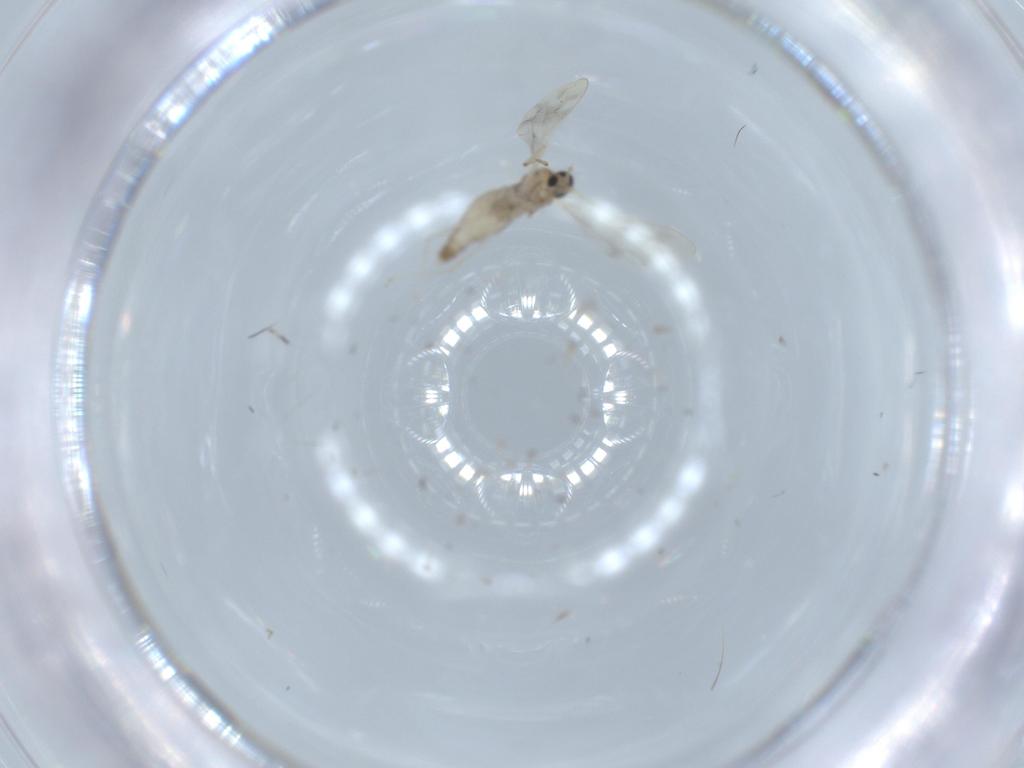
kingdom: Animalia
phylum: Arthropoda
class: Insecta
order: Diptera
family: Cecidomyiidae
